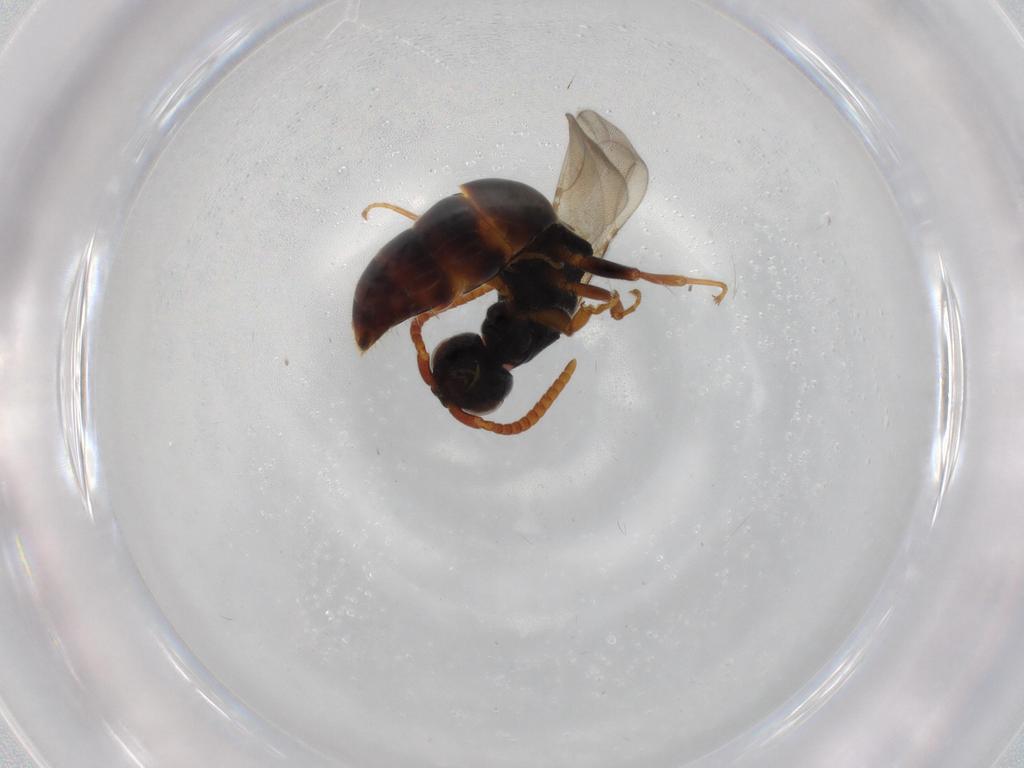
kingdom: Animalia
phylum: Arthropoda
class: Insecta
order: Hymenoptera
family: Bethylidae
